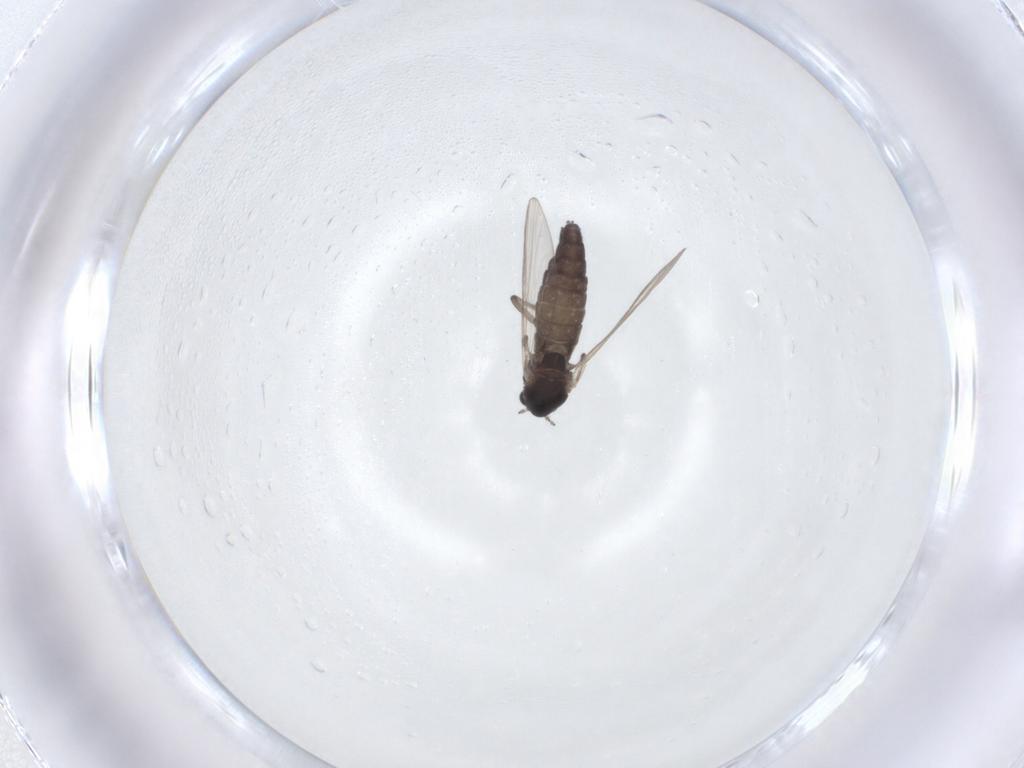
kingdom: Animalia
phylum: Arthropoda
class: Insecta
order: Diptera
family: Chironomidae
